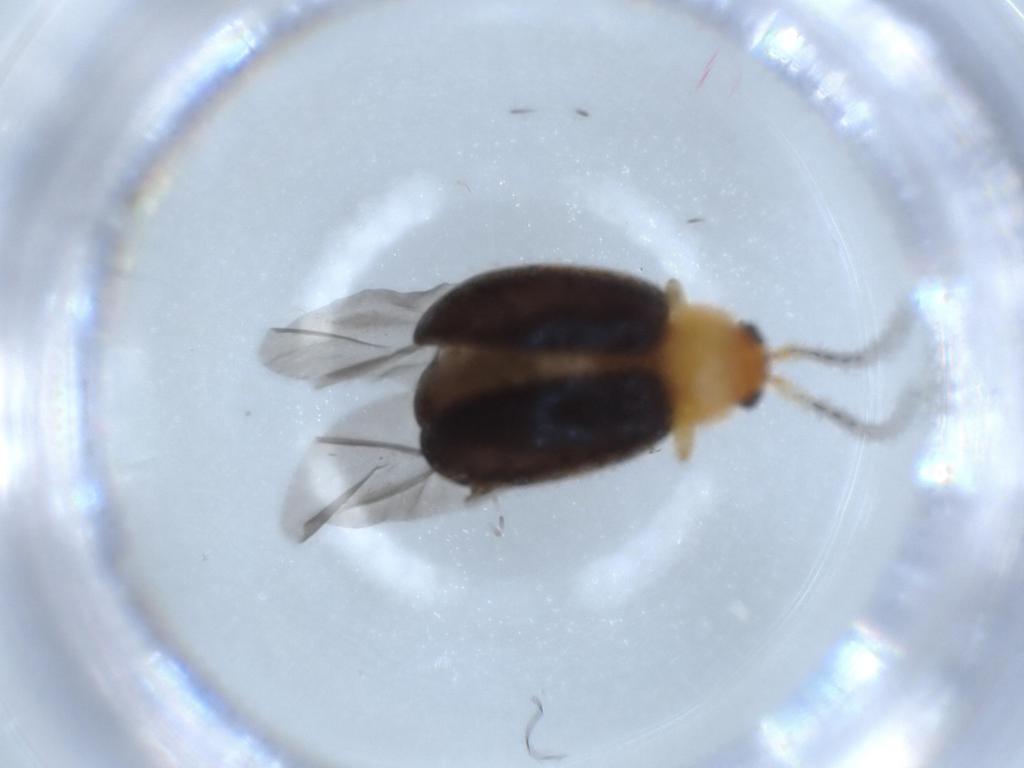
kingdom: Animalia
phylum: Arthropoda
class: Insecta
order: Coleoptera
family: Chrysomelidae
